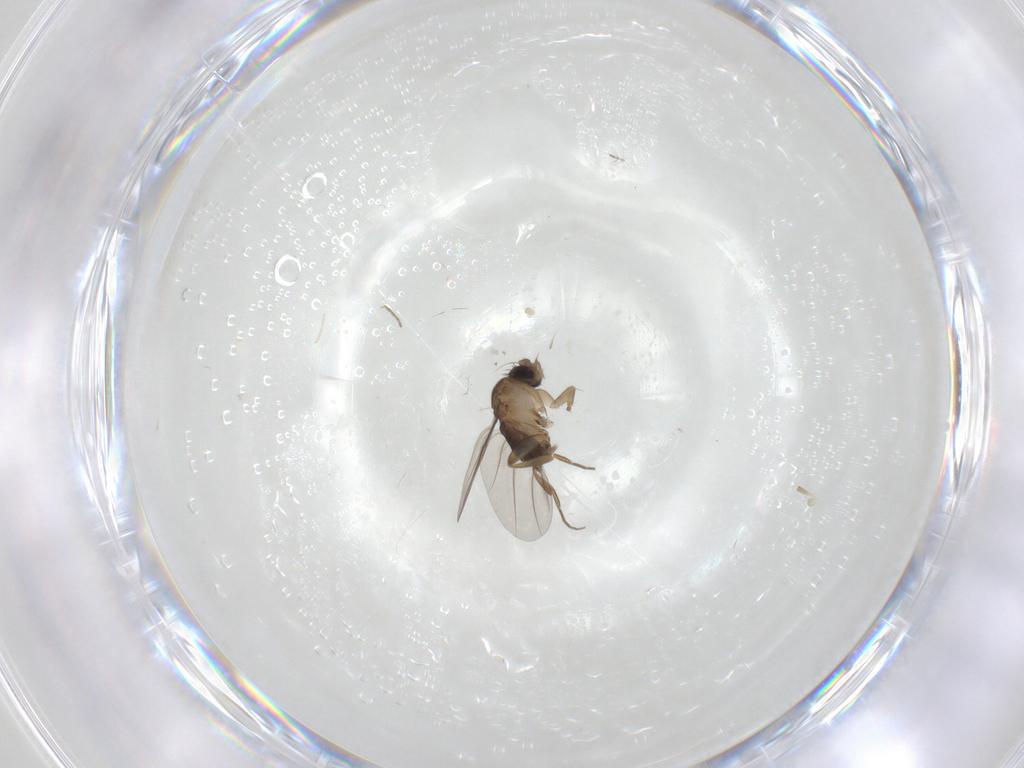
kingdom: Animalia
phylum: Arthropoda
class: Insecta
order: Diptera
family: Phoridae
